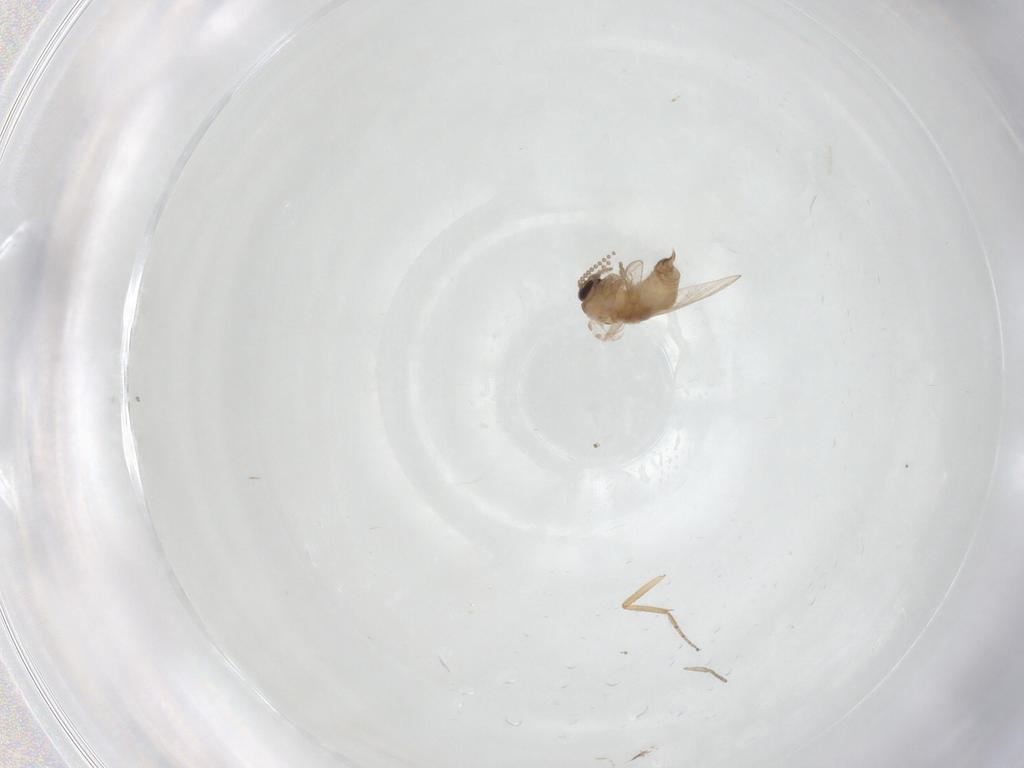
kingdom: Animalia
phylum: Arthropoda
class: Insecta
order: Diptera
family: Psychodidae
